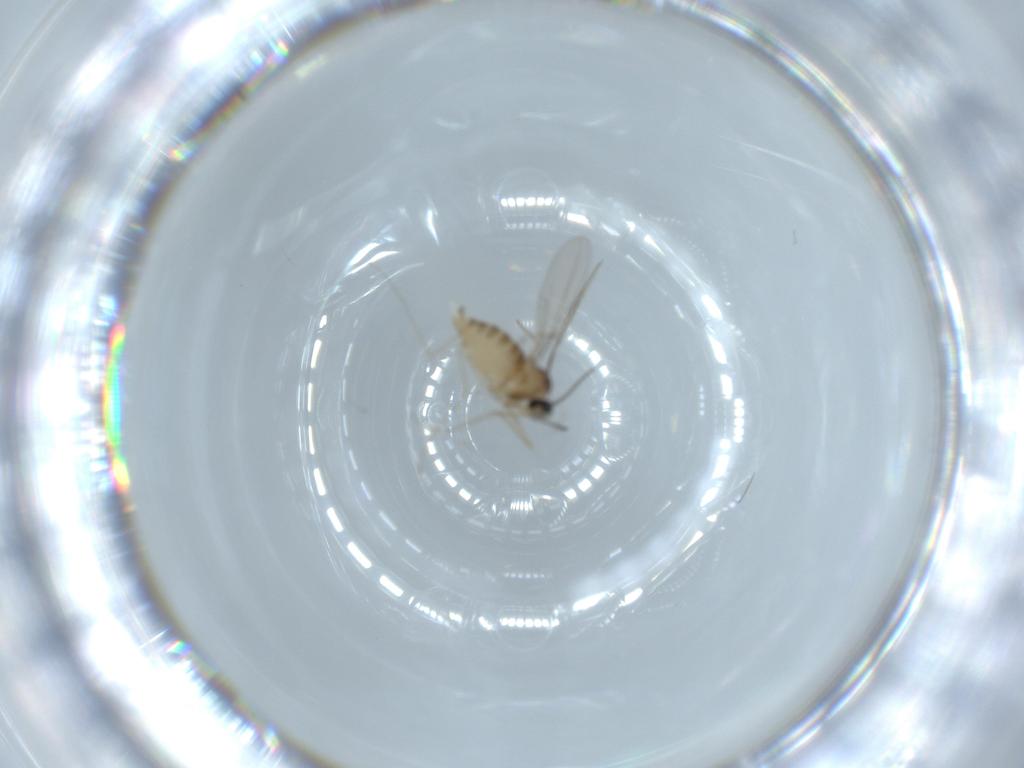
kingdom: Animalia
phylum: Arthropoda
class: Insecta
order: Diptera
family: Cecidomyiidae
